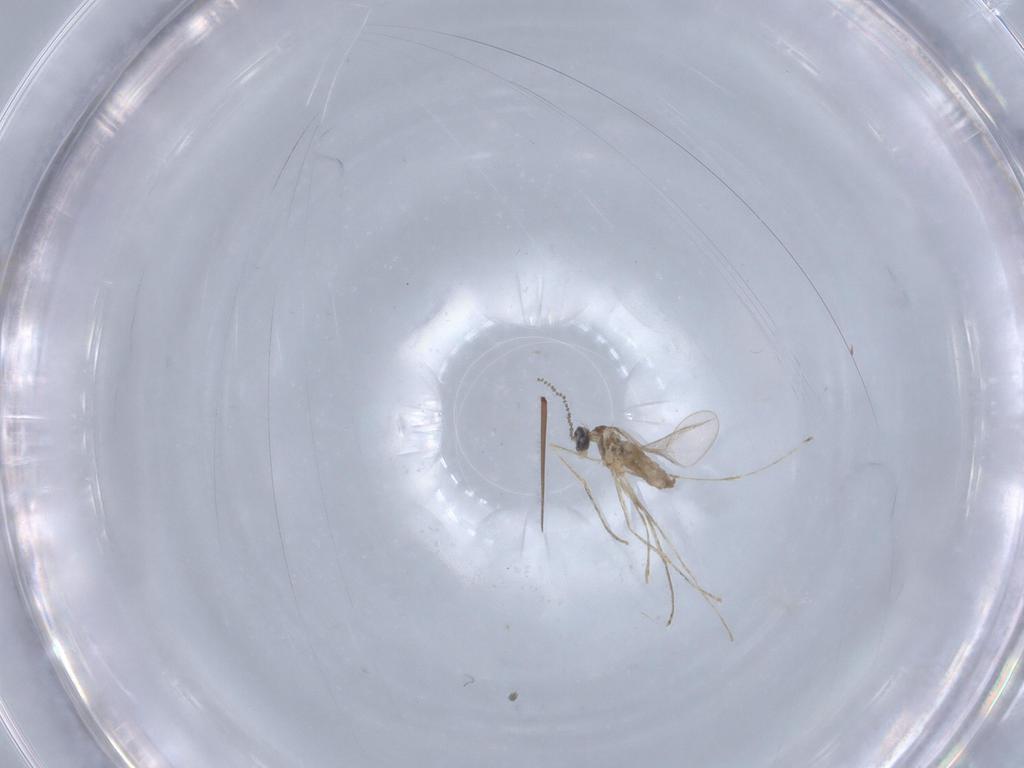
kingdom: Animalia
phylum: Arthropoda
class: Insecta
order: Diptera
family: Cecidomyiidae
